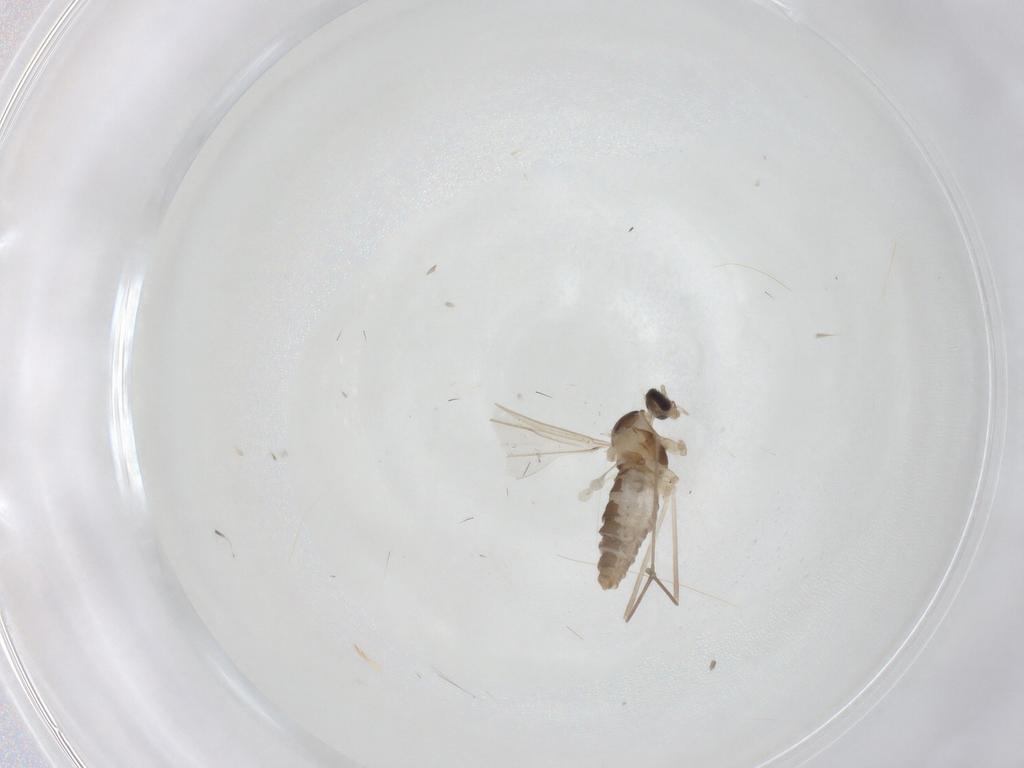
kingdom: Animalia
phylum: Arthropoda
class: Insecta
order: Diptera
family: Cecidomyiidae
